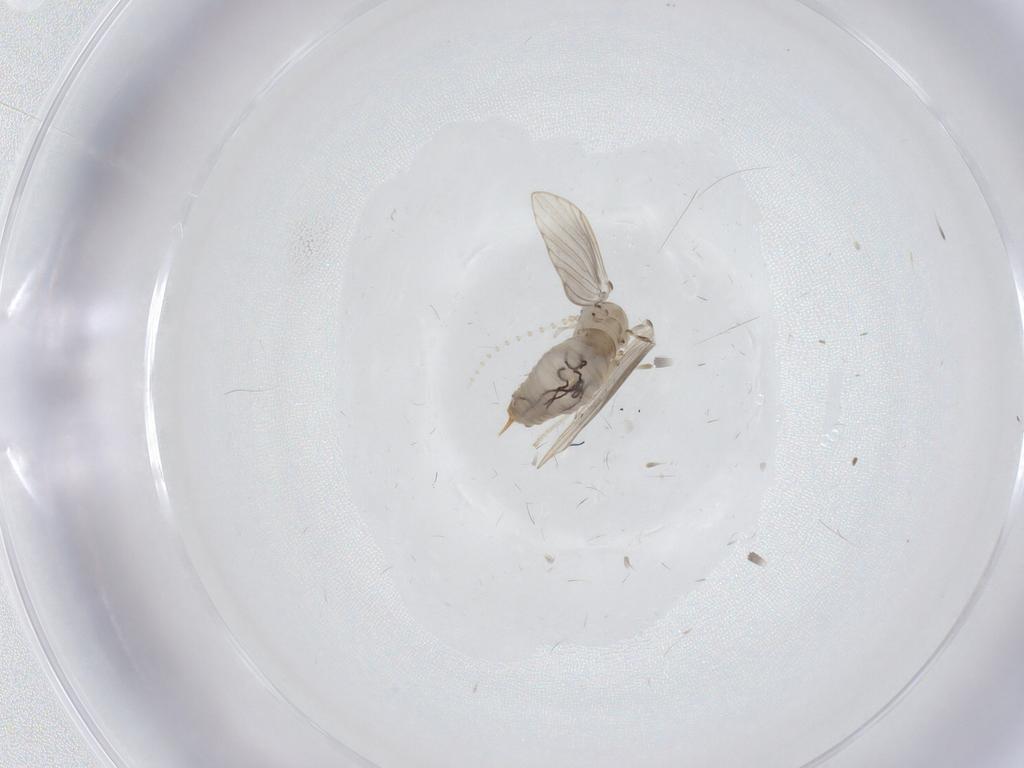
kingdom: Animalia
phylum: Arthropoda
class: Insecta
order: Diptera
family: Psychodidae
